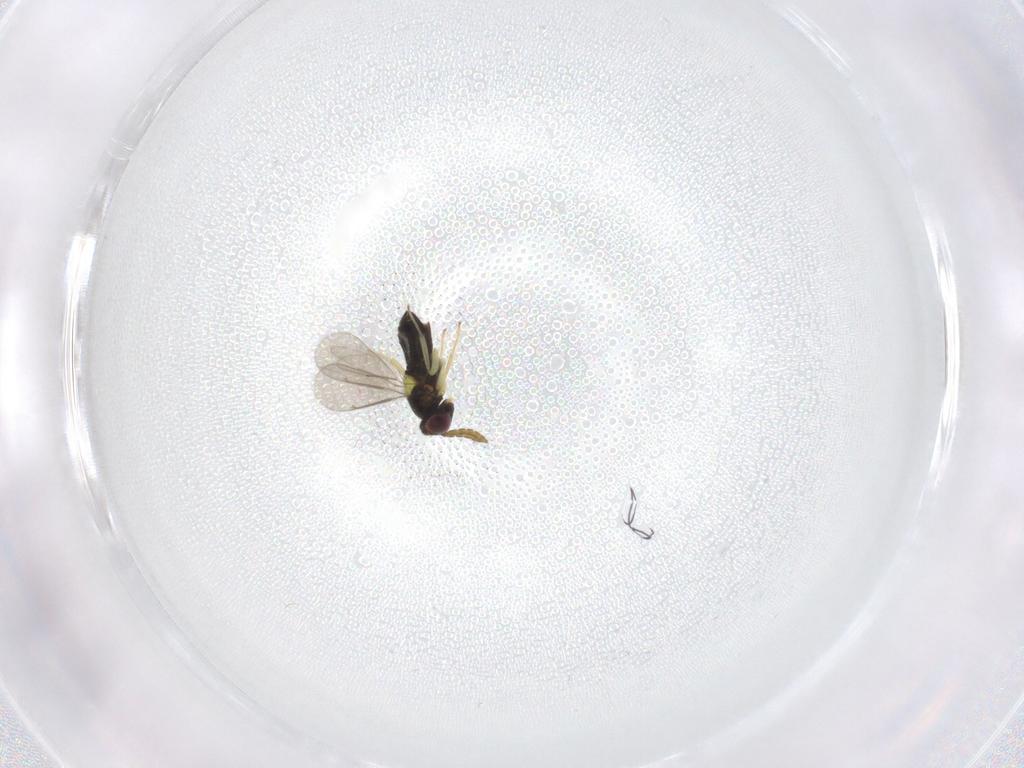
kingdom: Animalia
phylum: Arthropoda
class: Insecta
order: Hymenoptera
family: Aphelinidae
